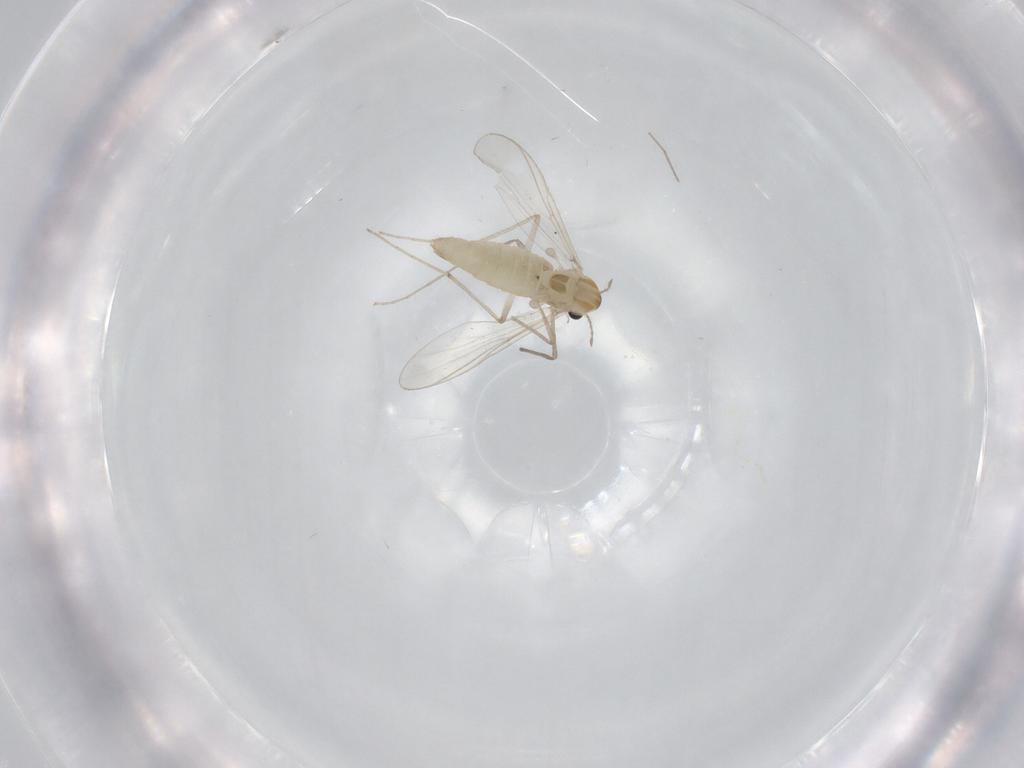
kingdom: Animalia
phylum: Arthropoda
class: Insecta
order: Diptera
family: Chironomidae
